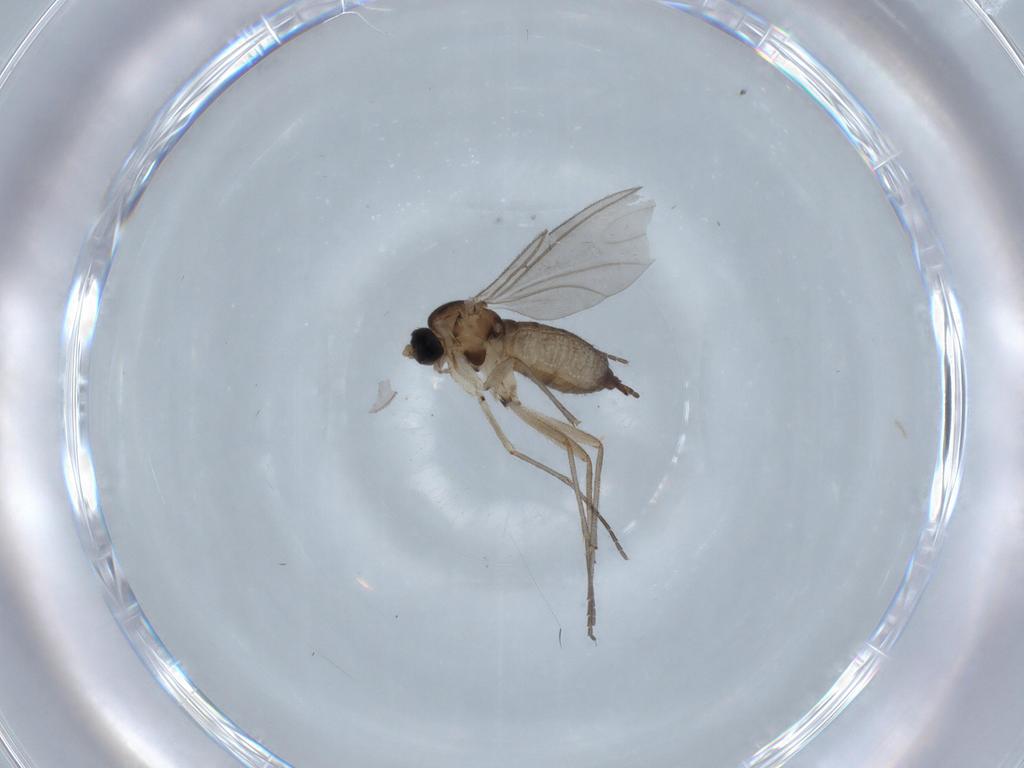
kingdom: Animalia
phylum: Arthropoda
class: Insecta
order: Diptera
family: Sciaridae
